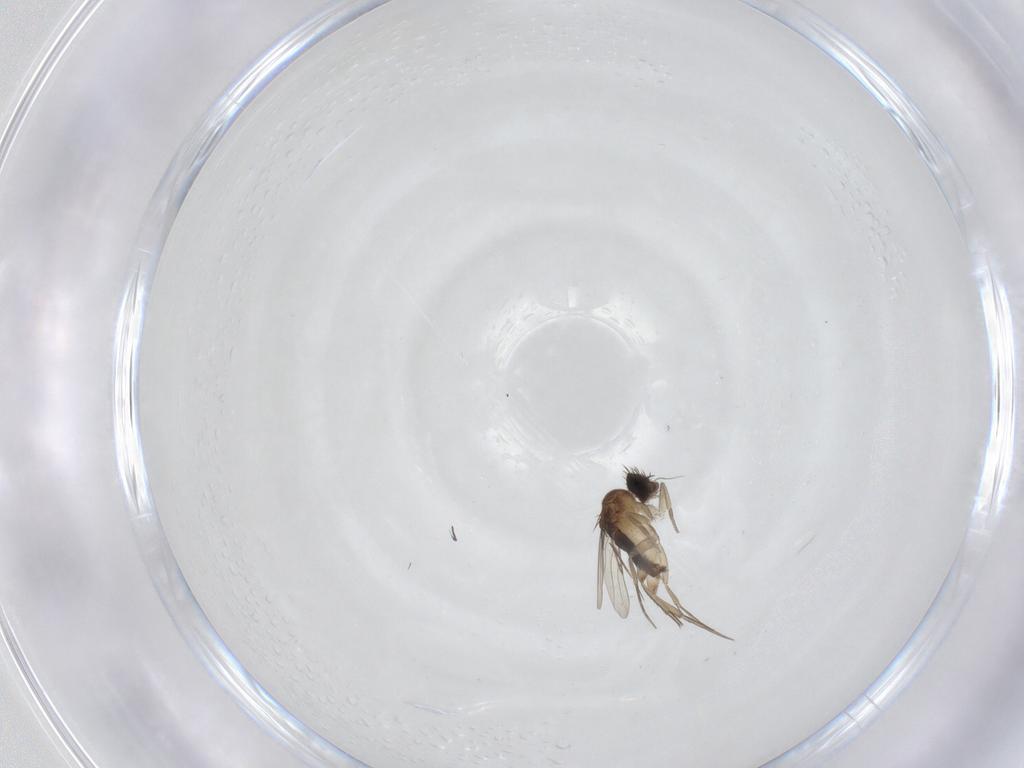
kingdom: Animalia
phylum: Arthropoda
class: Insecta
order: Diptera
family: Phoridae
